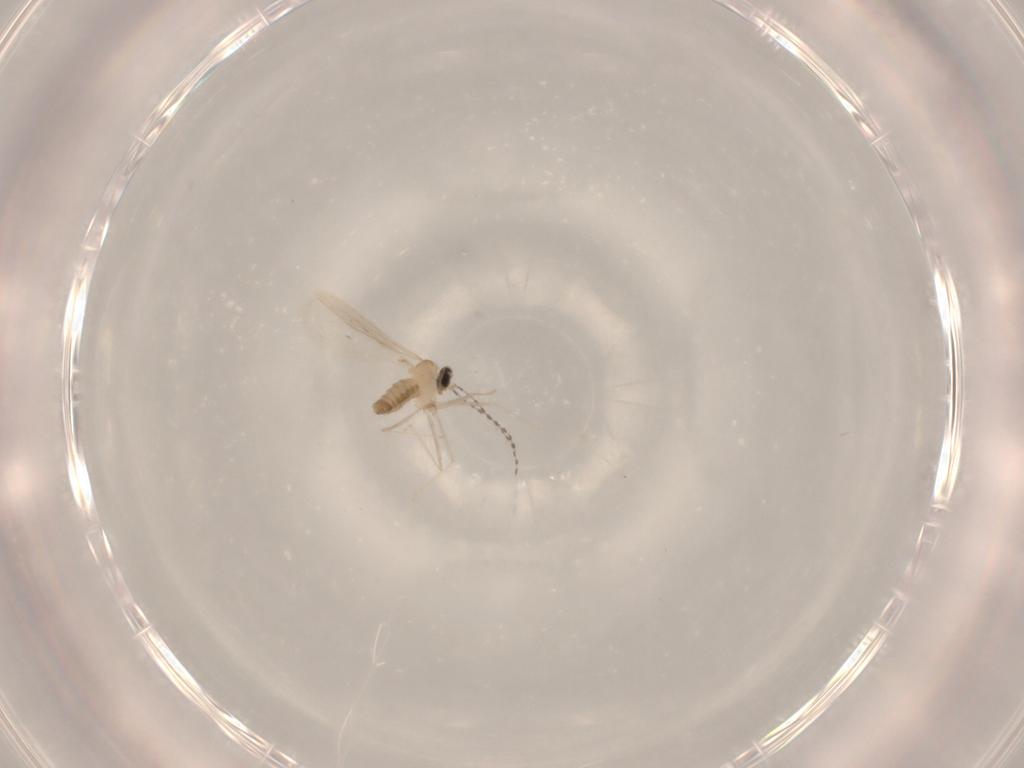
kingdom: Animalia
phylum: Arthropoda
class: Insecta
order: Diptera
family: Cecidomyiidae
